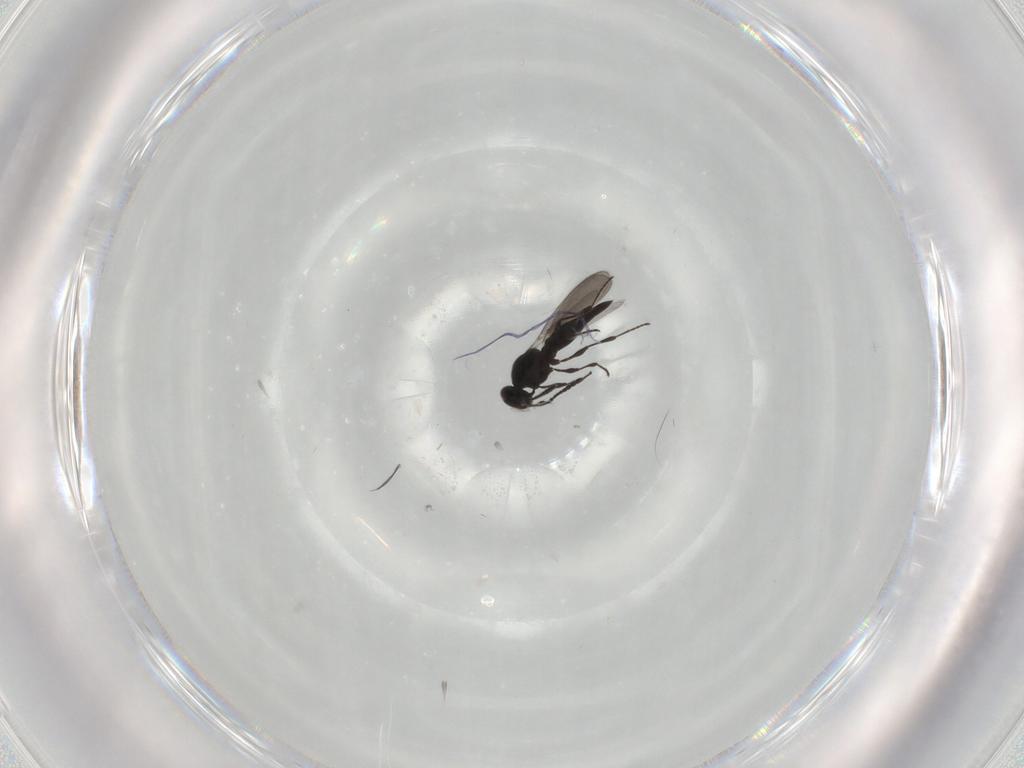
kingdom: Animalia
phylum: Arthropoda
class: Insecta
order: Hymenoptera
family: Platygastridae
